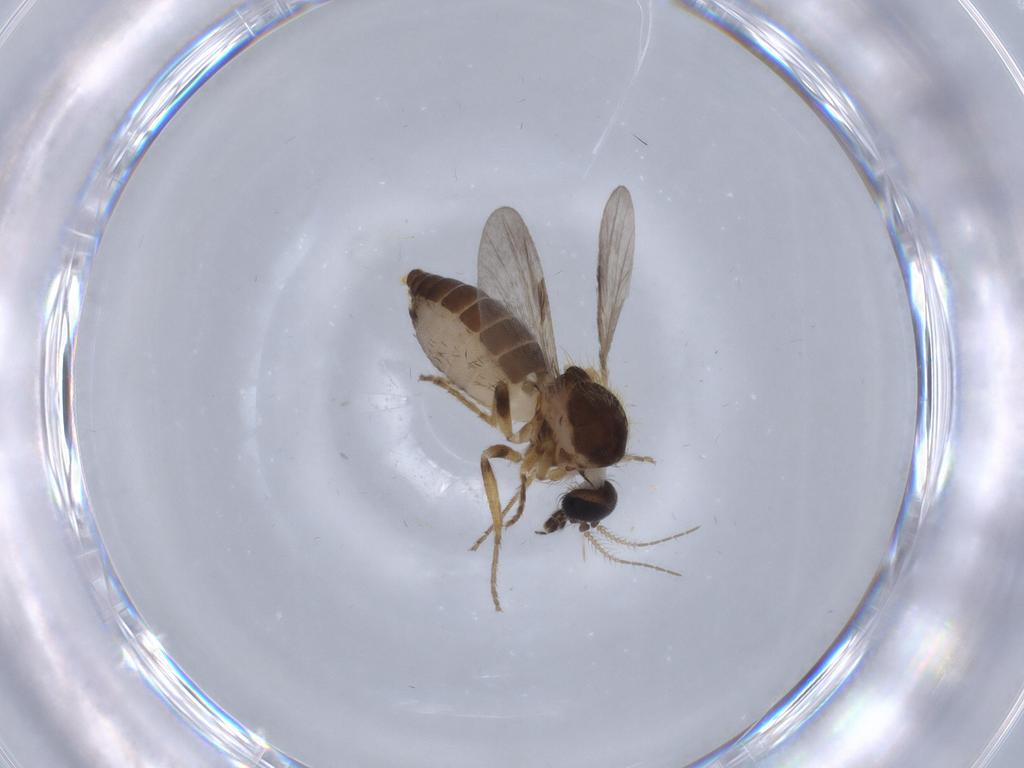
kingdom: Animalia
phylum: Arthropoda
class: Insecta
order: Diptera
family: Ceratopogonidae
